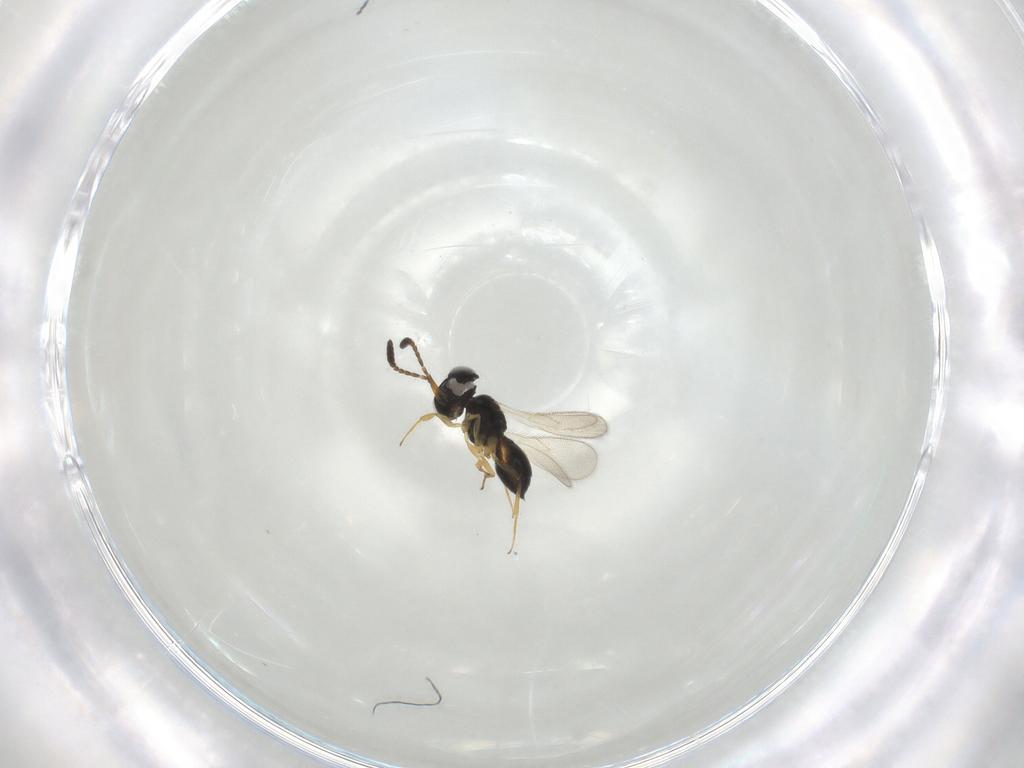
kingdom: Animalia
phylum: Arthropoda
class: Insecta
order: Hymenoptera
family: Scelionidae
